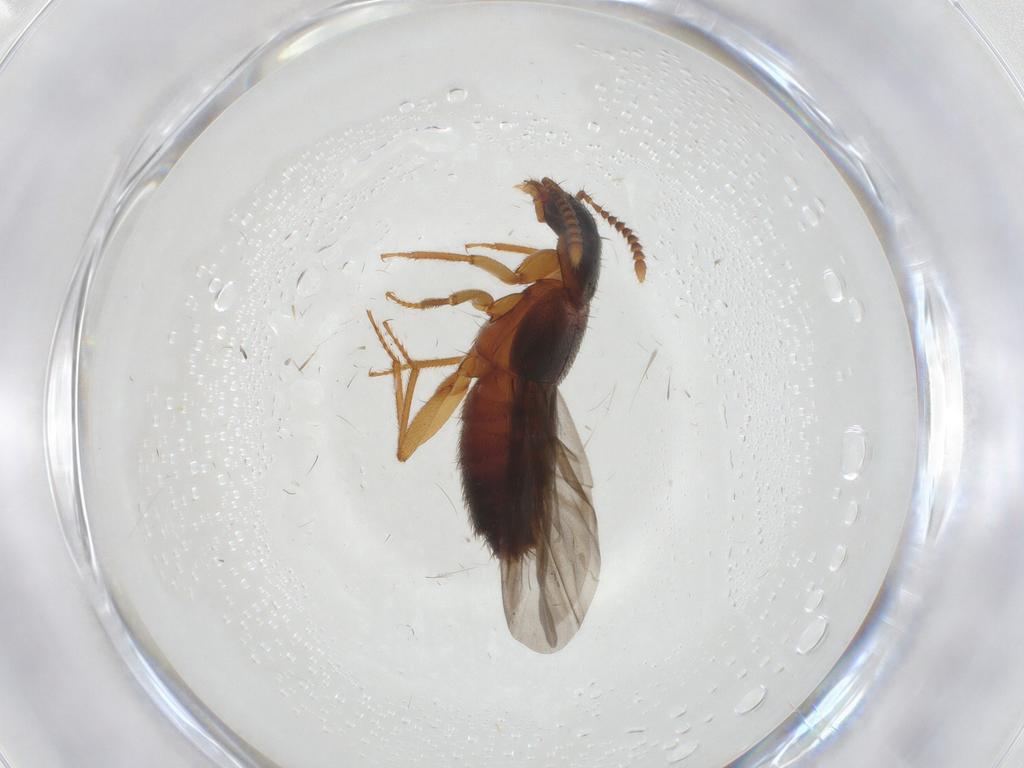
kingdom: Animalia
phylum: Arthropoda
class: Insecta
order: Coleoptera
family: Staphylinidae
